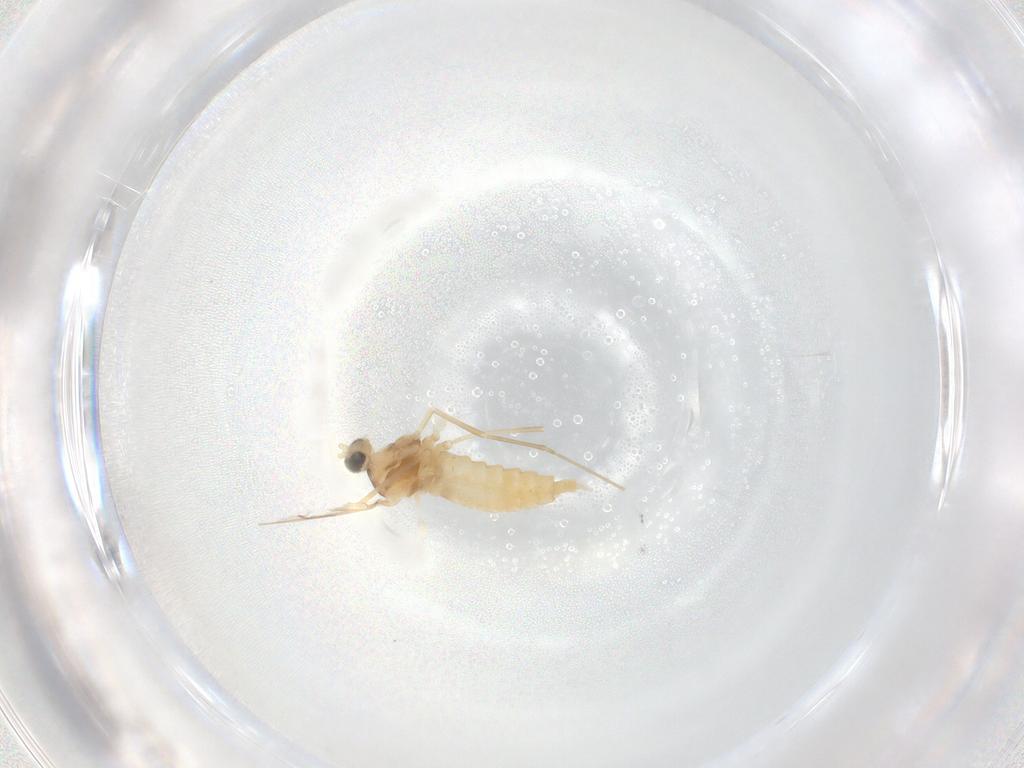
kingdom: Animalia
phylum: Arthropoda
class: Insecta
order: Diptera
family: Cecidomyiidae
